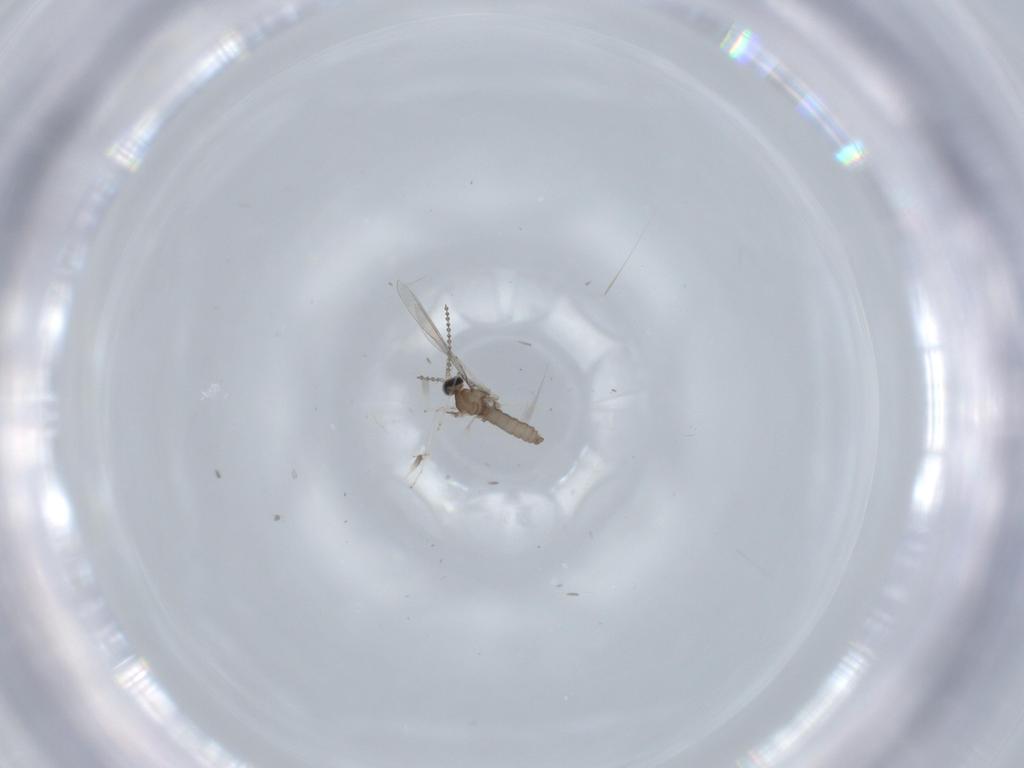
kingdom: Animalia
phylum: Arthropoda
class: Insecta
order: Diptera
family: Cecidomyiidae
